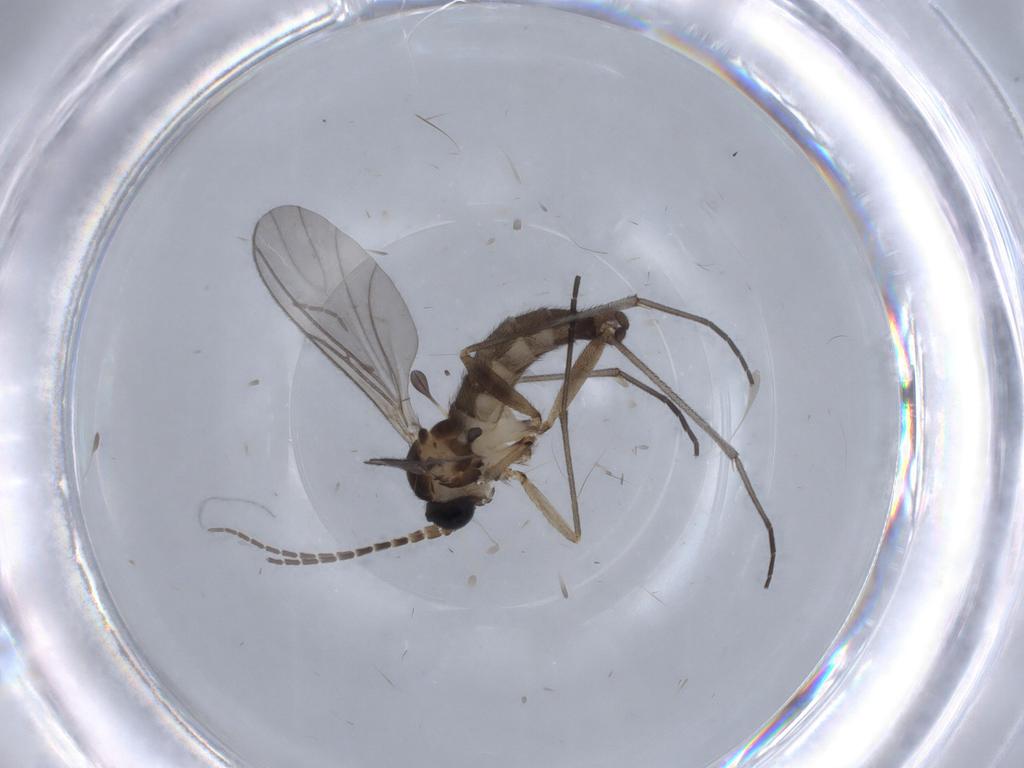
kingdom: Animalia
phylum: Arthropoda
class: Insecta
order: Diptera
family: Sciaridae
